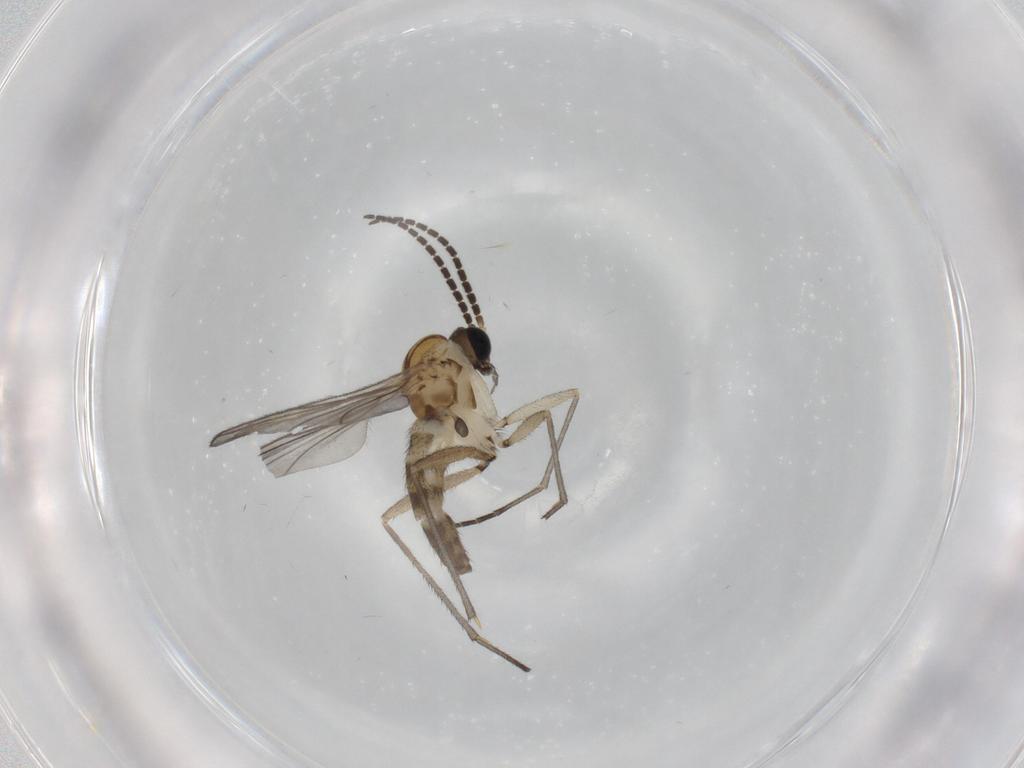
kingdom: Animalia
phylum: Arthropoda
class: Insecta
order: Diptera
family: Sciaridae
